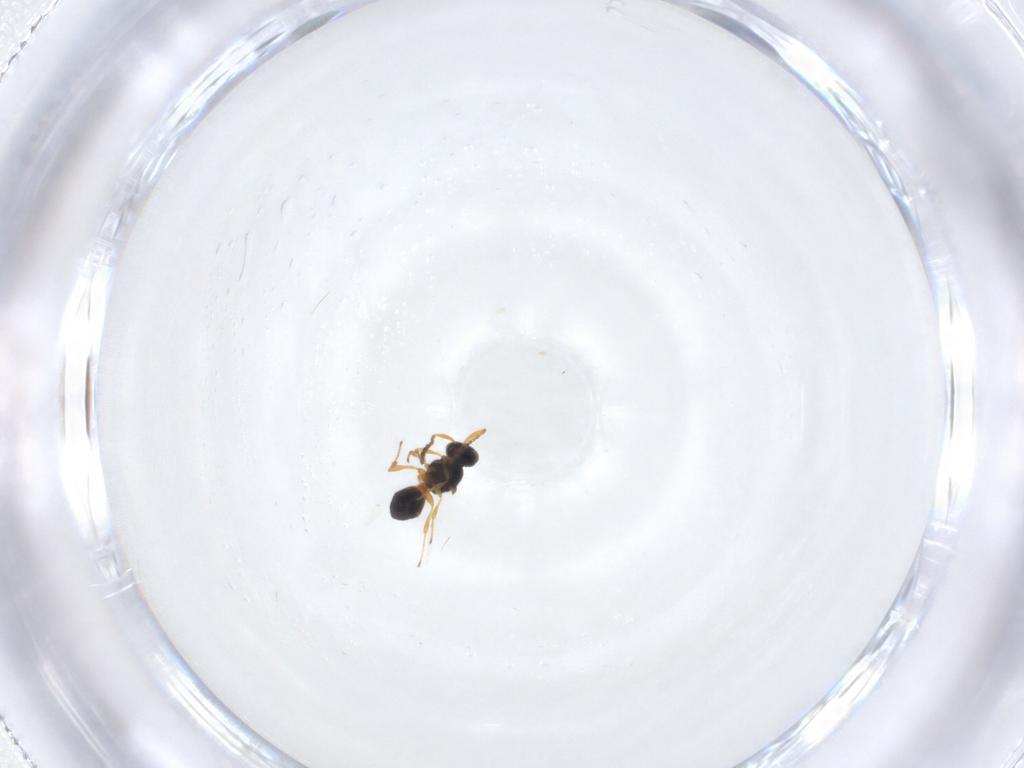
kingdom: Animalia
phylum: Arthropoda
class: Insecta
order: Hymenoptera
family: Platygastridae
